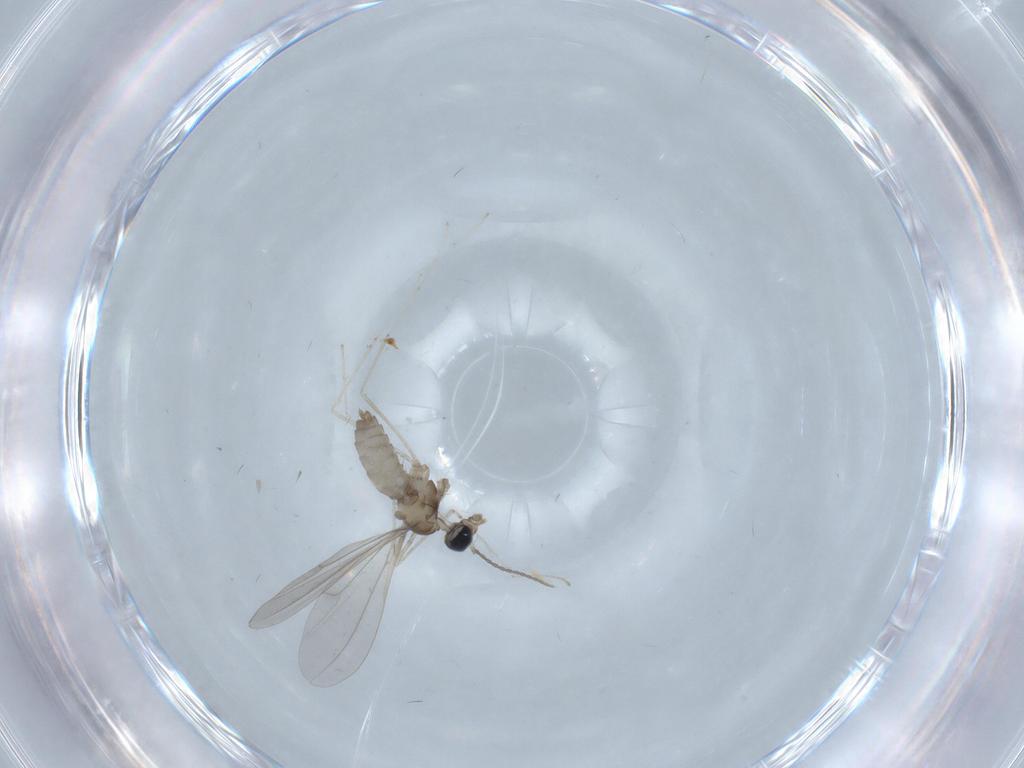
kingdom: Animalia
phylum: Arthropoda
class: Insecta
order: Diptera
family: Cecidomyiidae
